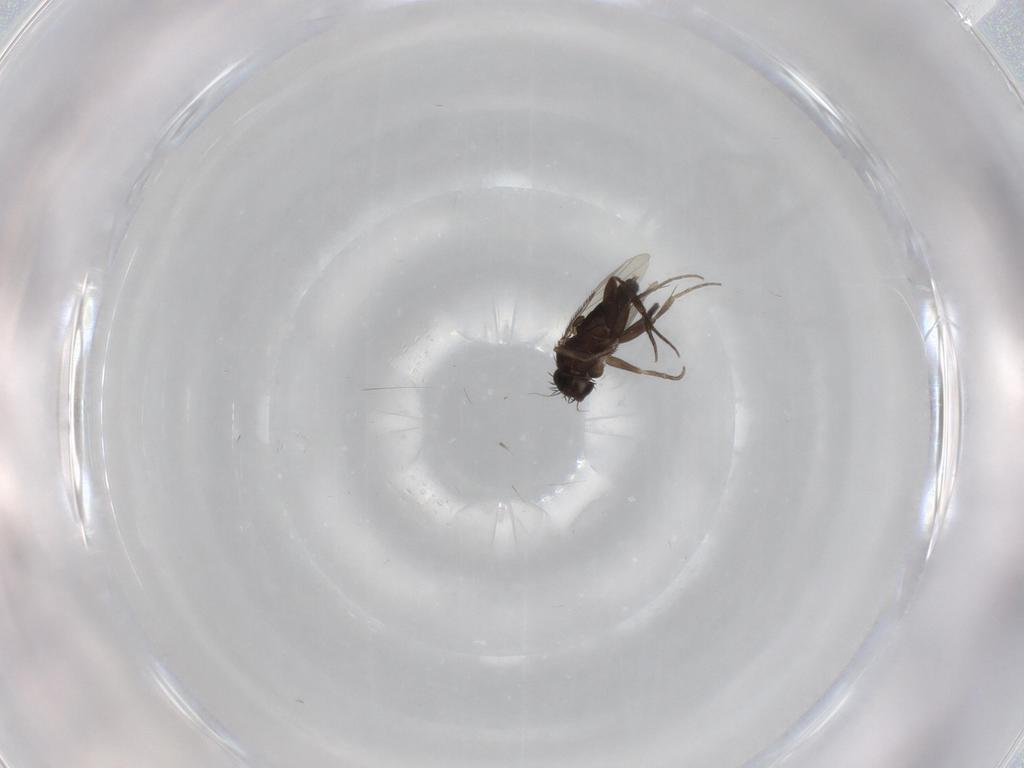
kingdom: Animalia
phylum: Arthropoda
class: Insecta
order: Diptera
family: Phoridae
